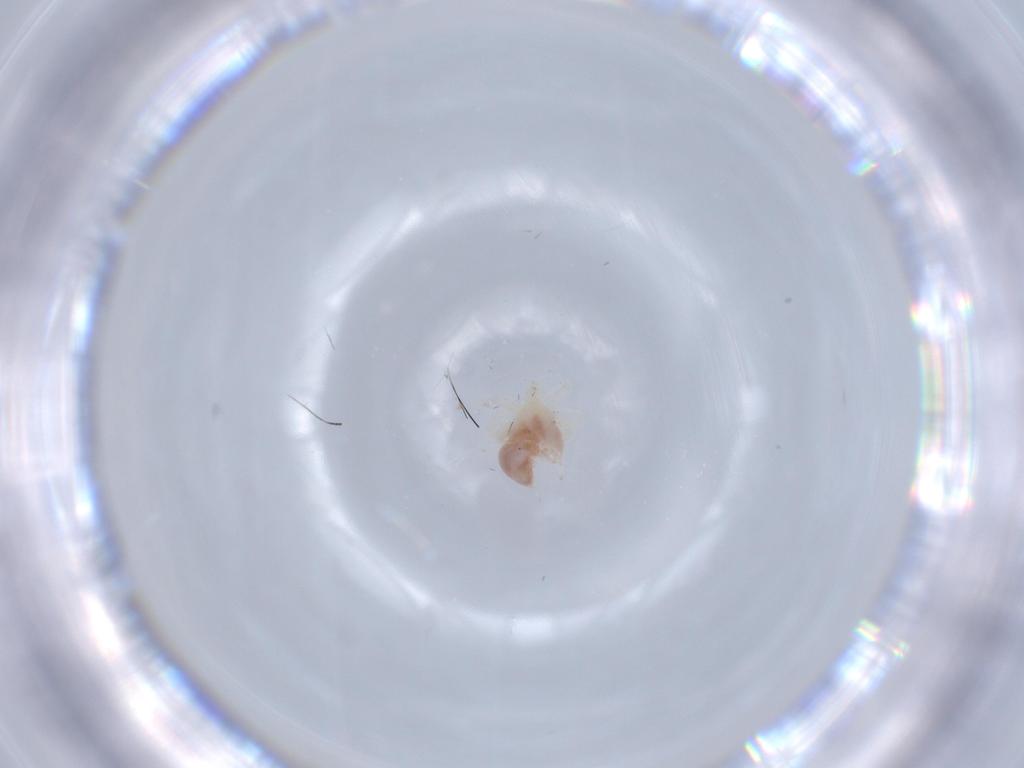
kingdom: Animalia
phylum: Arthropoda
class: Arachnida
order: Trombidiformes
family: Anystidae
